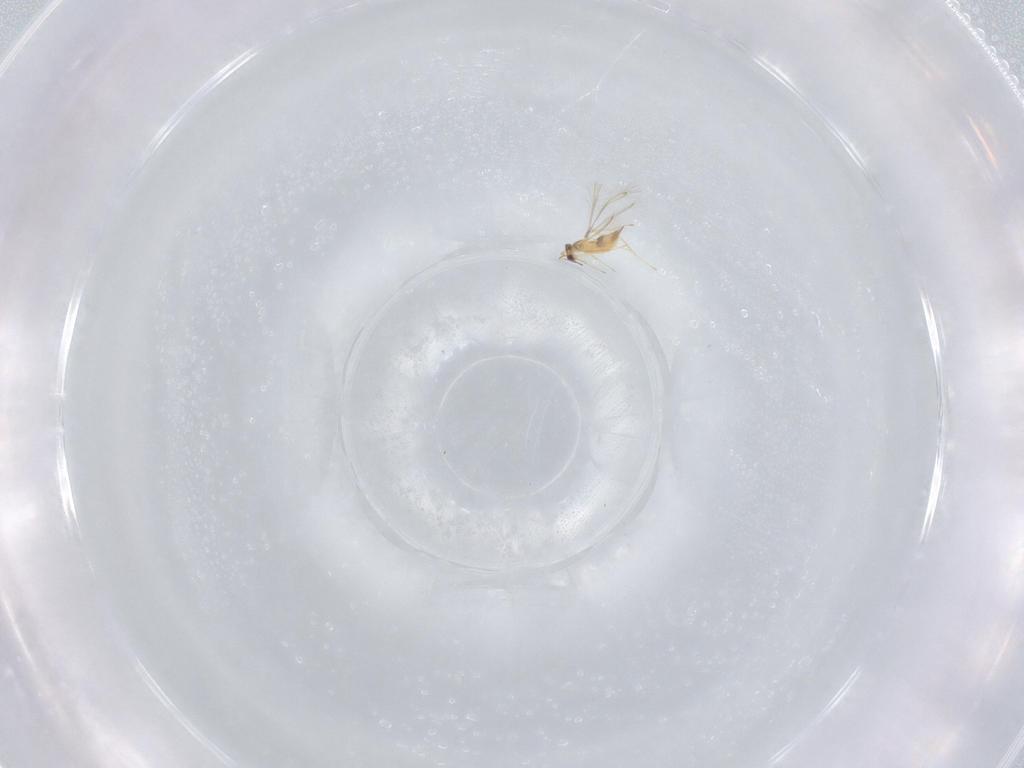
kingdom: Animalia
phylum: Arthropoda
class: Insecta
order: Hymenoptera
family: Mymaridae
